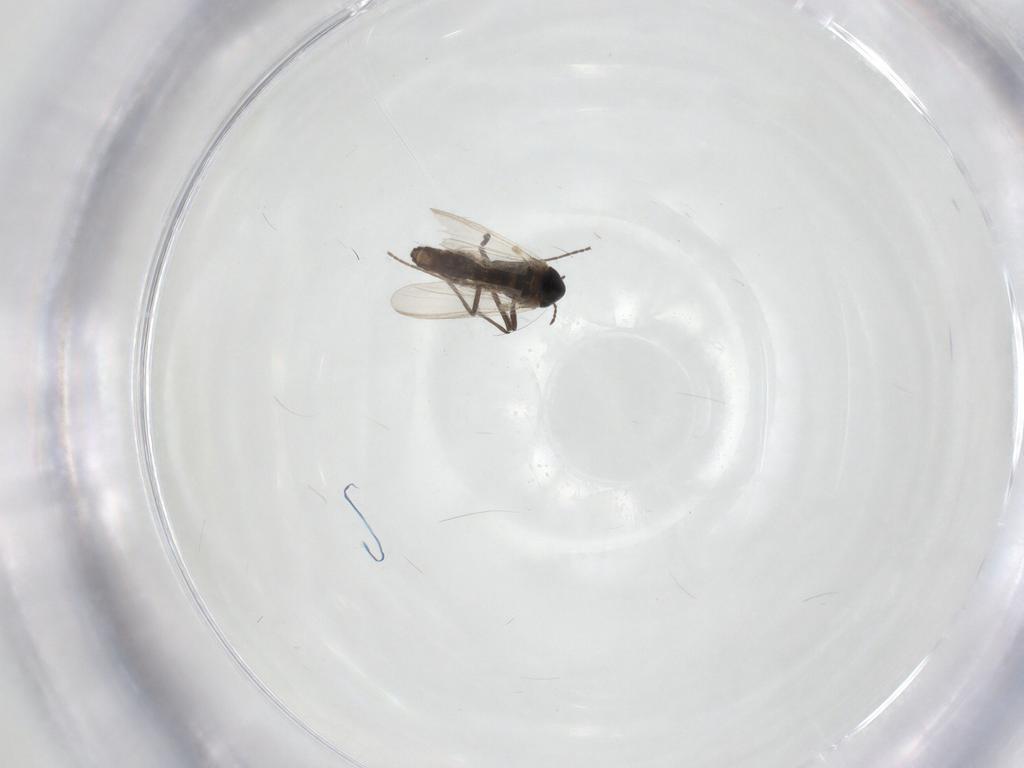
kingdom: Animalia
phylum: Arthropoda
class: Insecta
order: Diptera
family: Chironomidae
